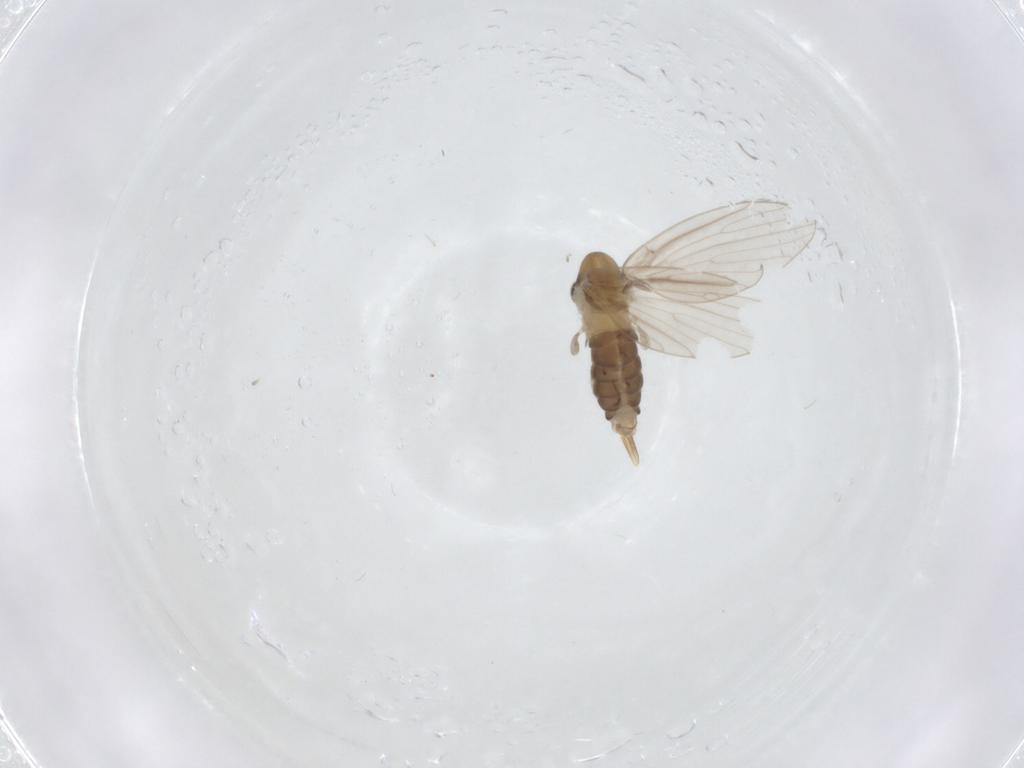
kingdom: Animalia
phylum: Arthropoda
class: Insecta
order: Diptera
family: Psychodidae
